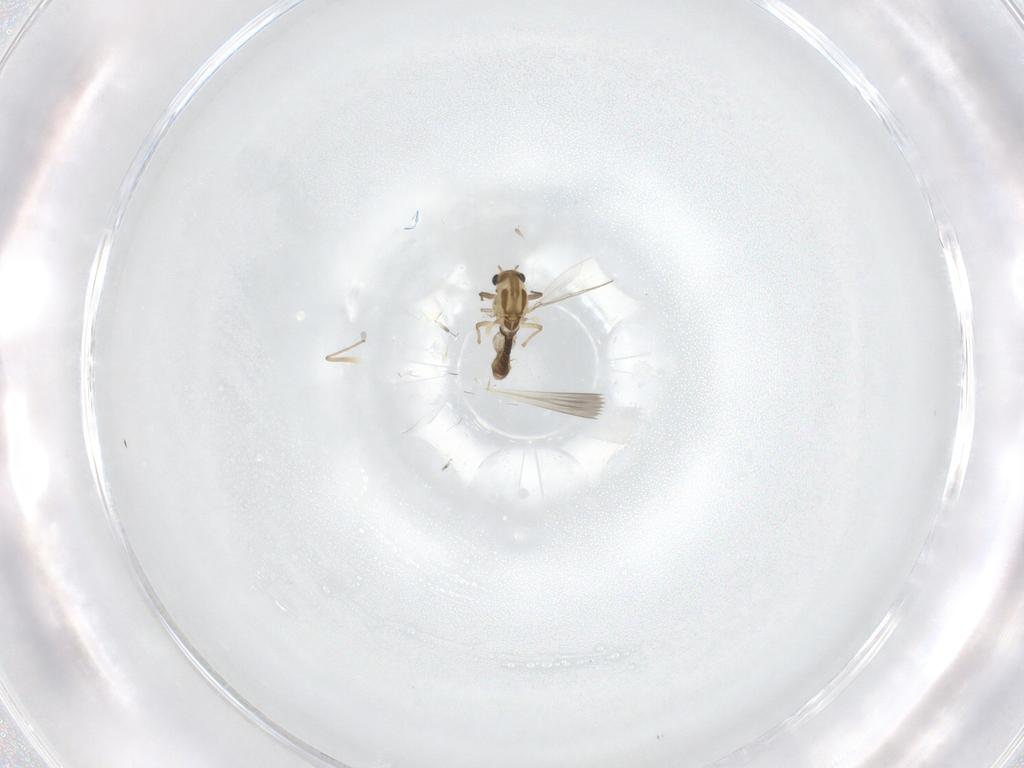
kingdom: Animalia
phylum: Arthropoda
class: Insecta
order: Diptera
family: Chironomidae
